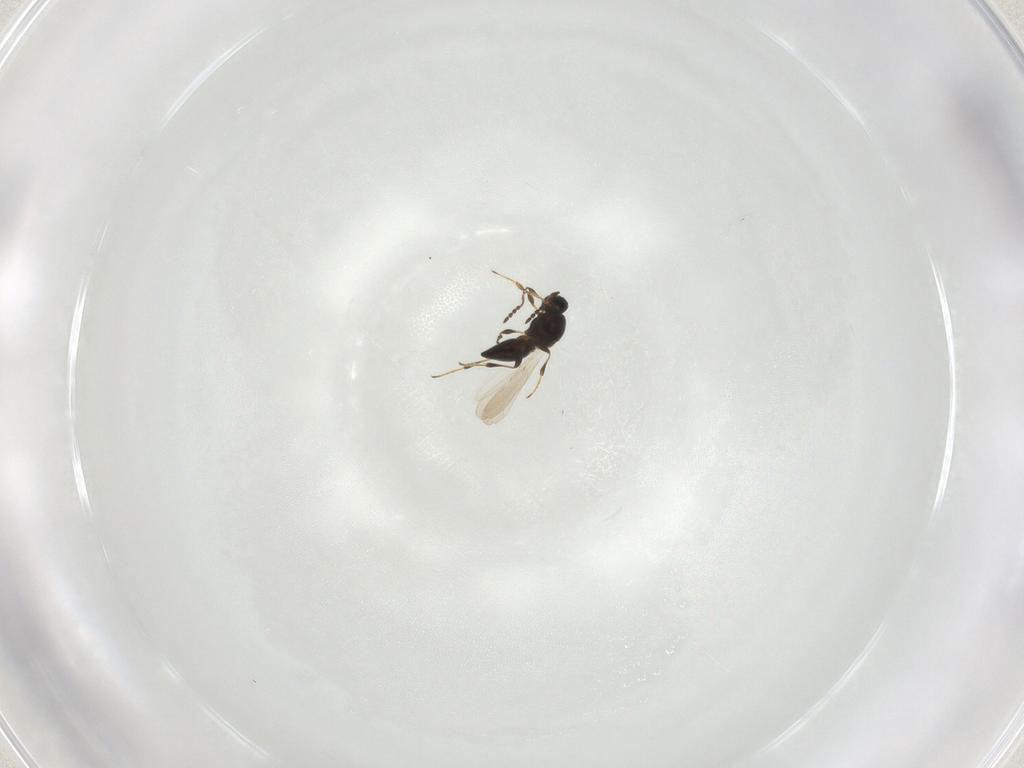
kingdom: Animalia
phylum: Arthropoda
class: Insecta
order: Hymenoptera
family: Platygastridae
